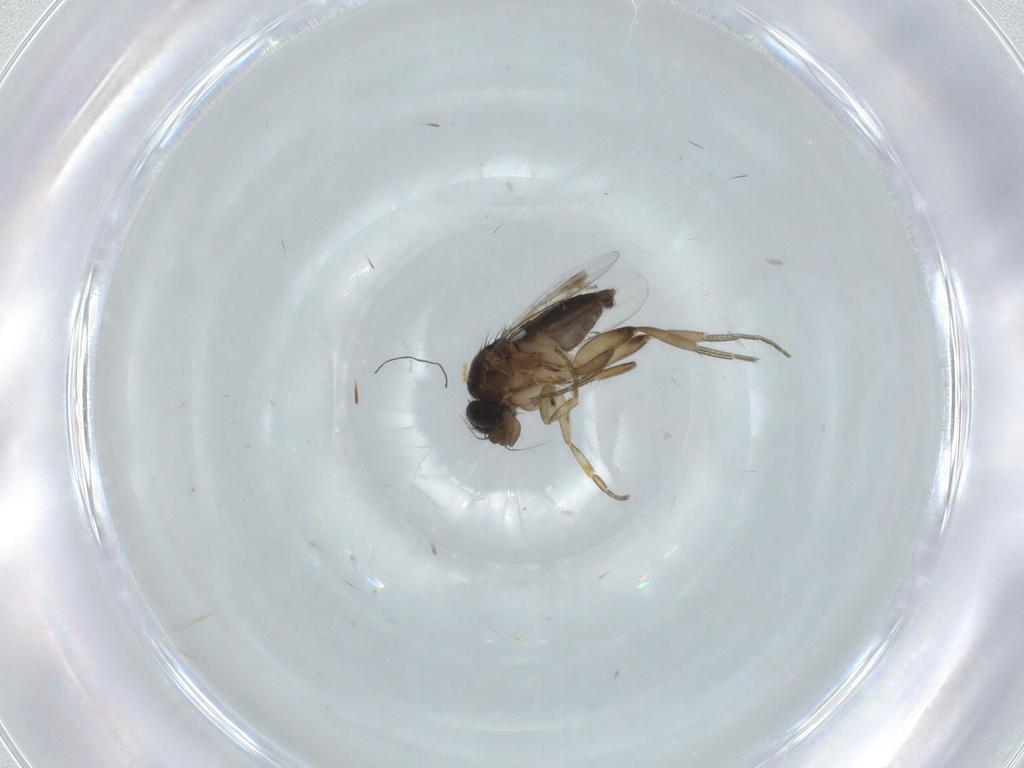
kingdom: Animalia
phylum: Arthropoda
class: Insecta
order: Diptera
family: Phoridae
